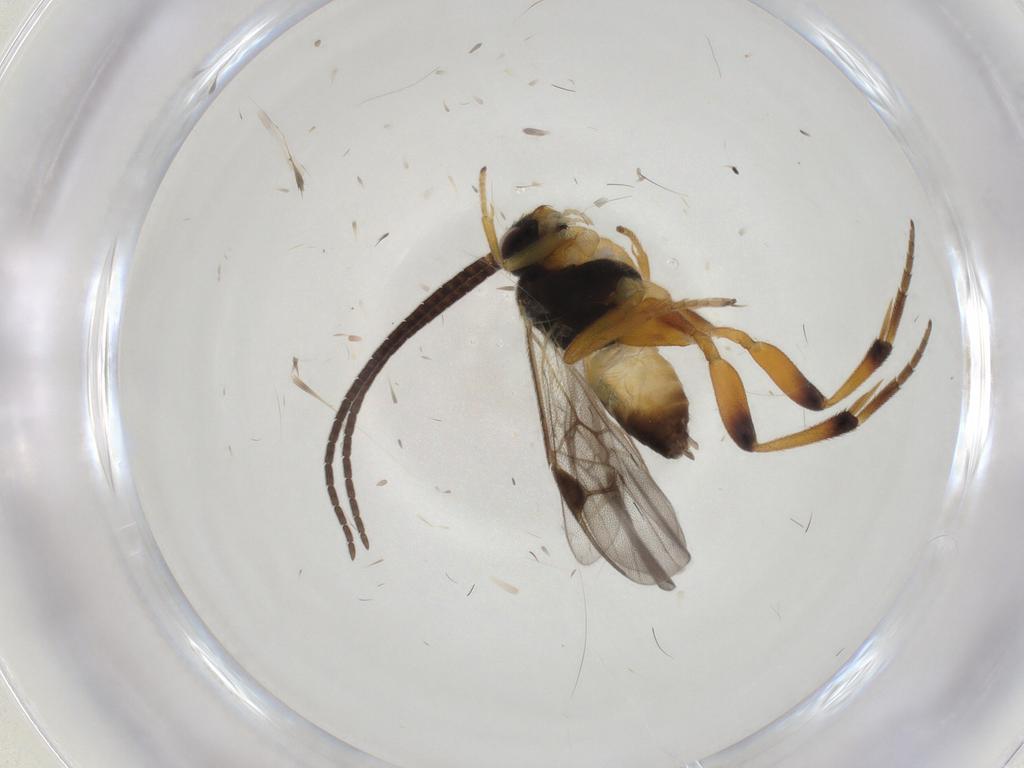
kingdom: Animalia
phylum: Arthropoda
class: Insecta
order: Hymenoptera
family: Braconidae
